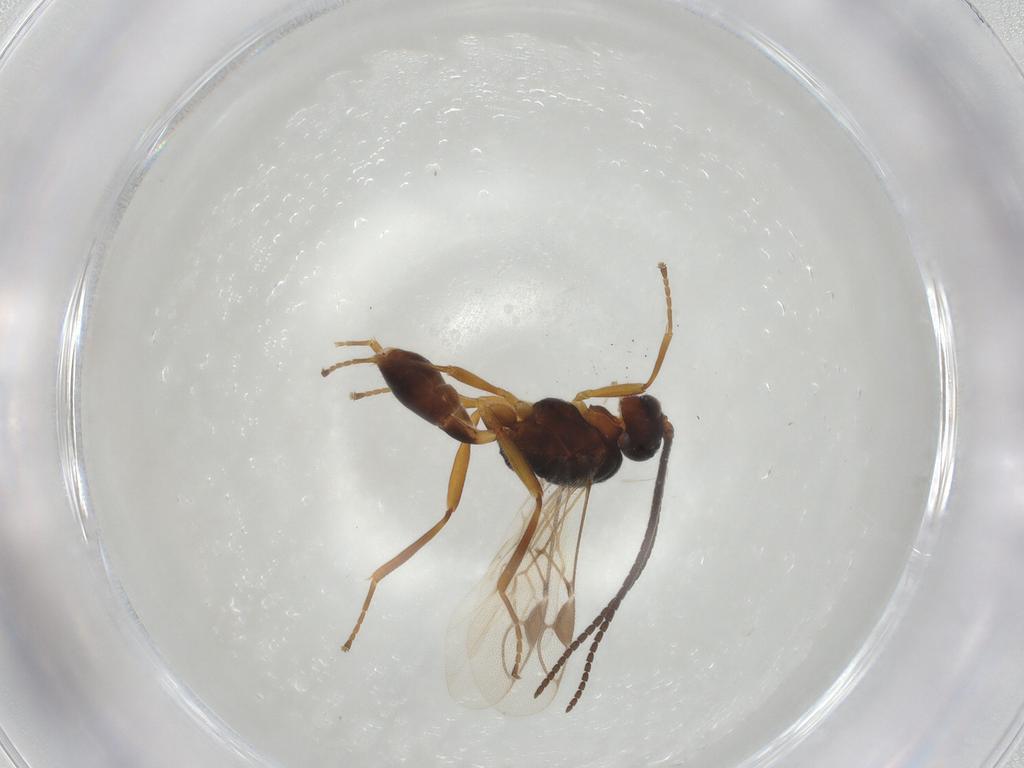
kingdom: Animalia
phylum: Arthropoda
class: Insecta
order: Hymenoptera
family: Braconidae
